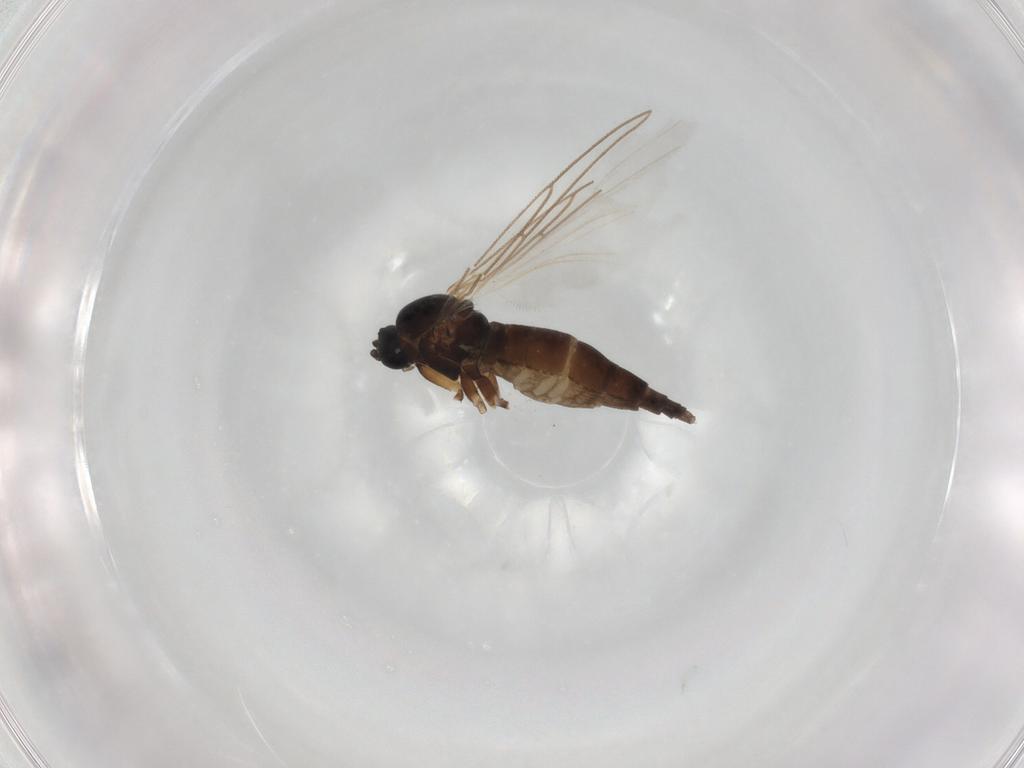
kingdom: Animalia
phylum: Arthropoda
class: Insecta
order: Diptera
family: Sciaridae
